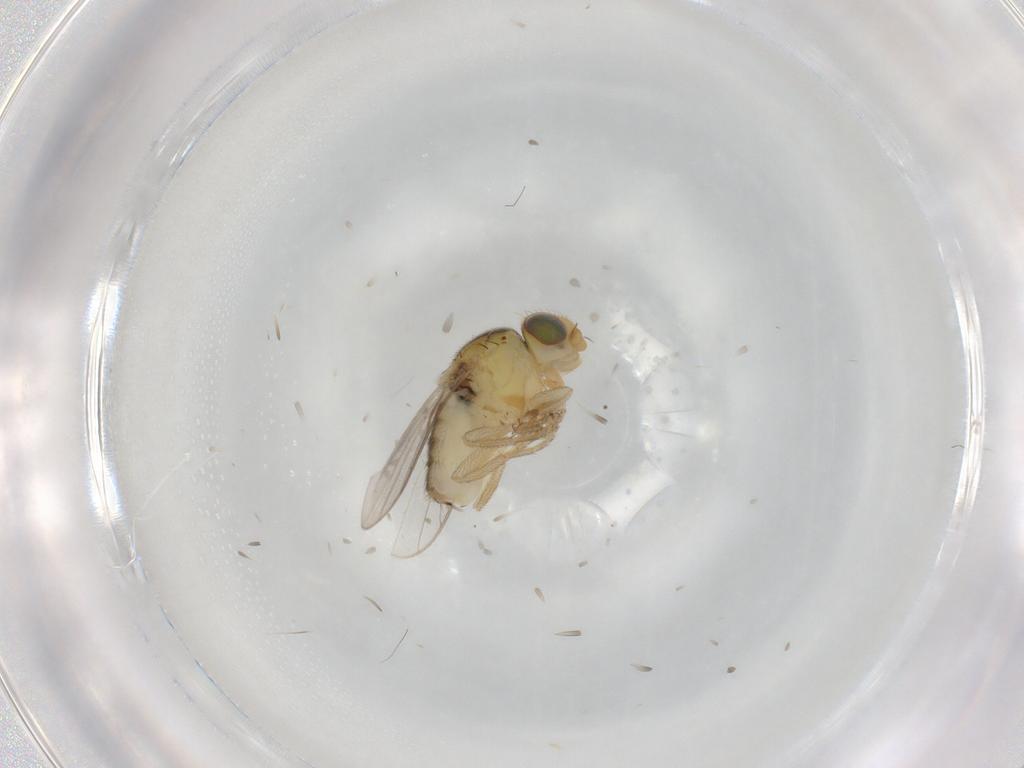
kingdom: Animalia
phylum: Arthropoda
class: Insecta
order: Diptera
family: Chloropidae
